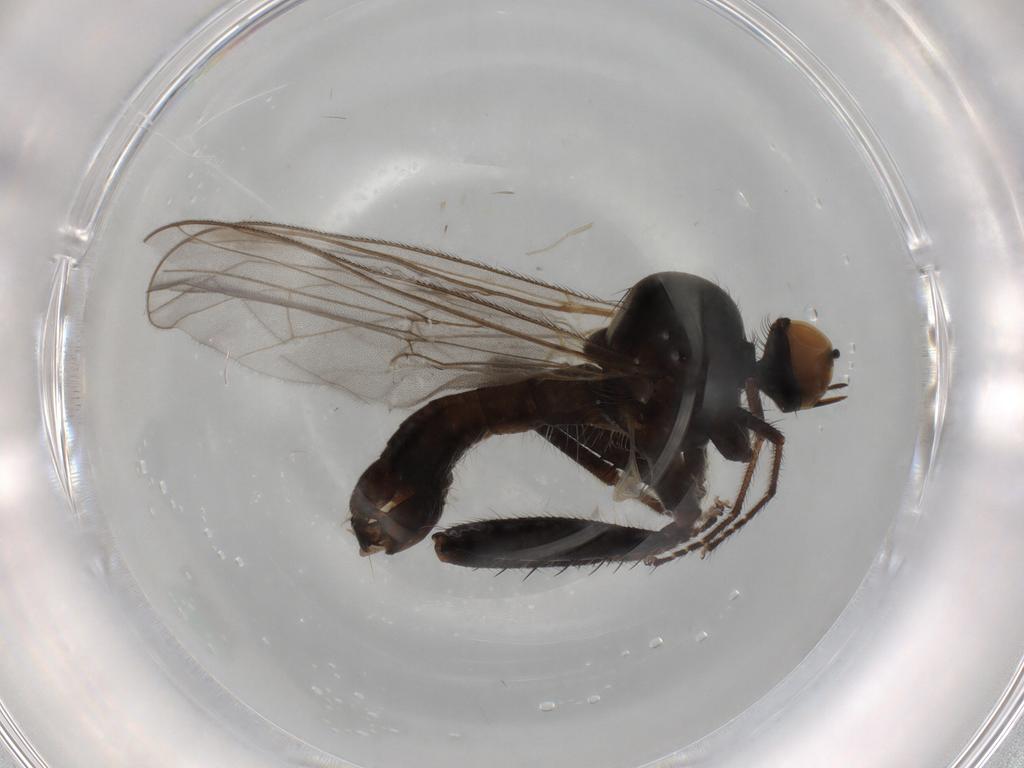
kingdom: Animalia
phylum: Arthropoda
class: Insecta
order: Diptera
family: Hybotidae
